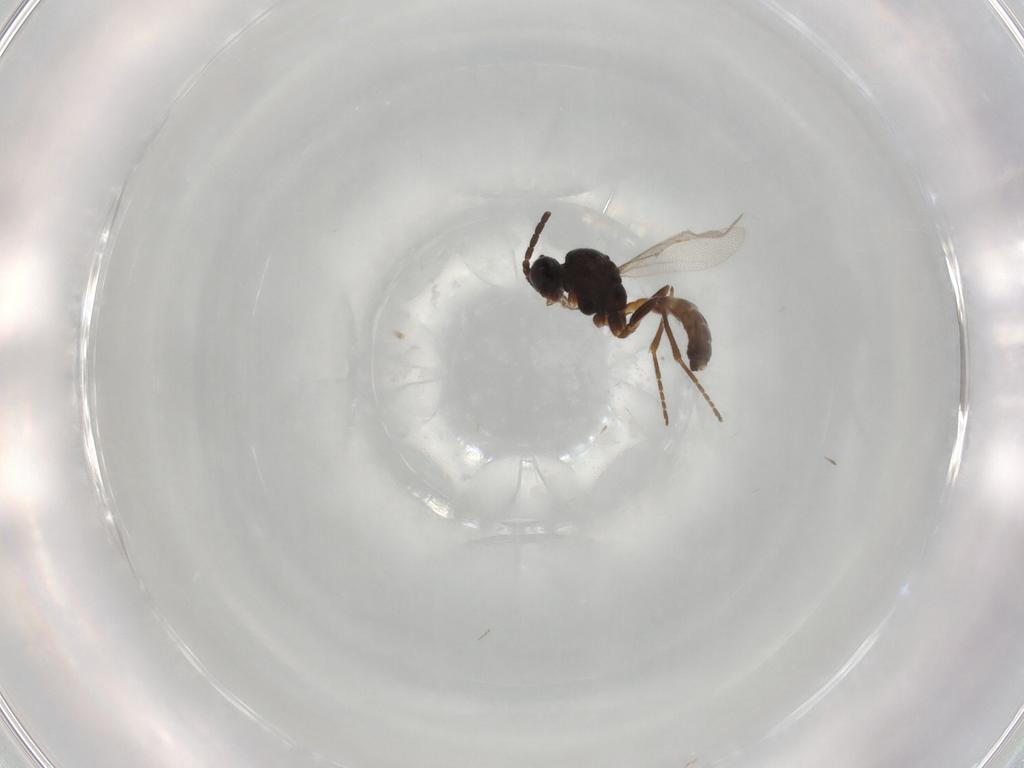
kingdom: Animalia
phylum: Arthropoda
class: Insecta
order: Hymenoptera
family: Braconidae
